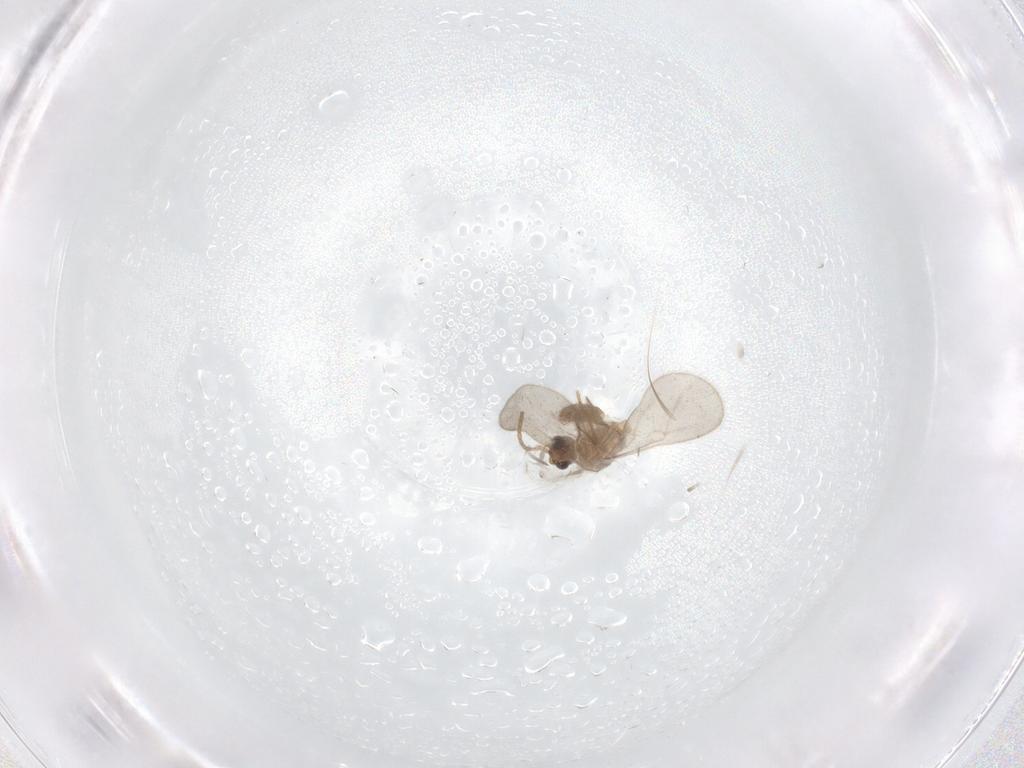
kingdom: Animalia
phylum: Arthropoda
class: Insecta
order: Hymenoptera
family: Formicidae
